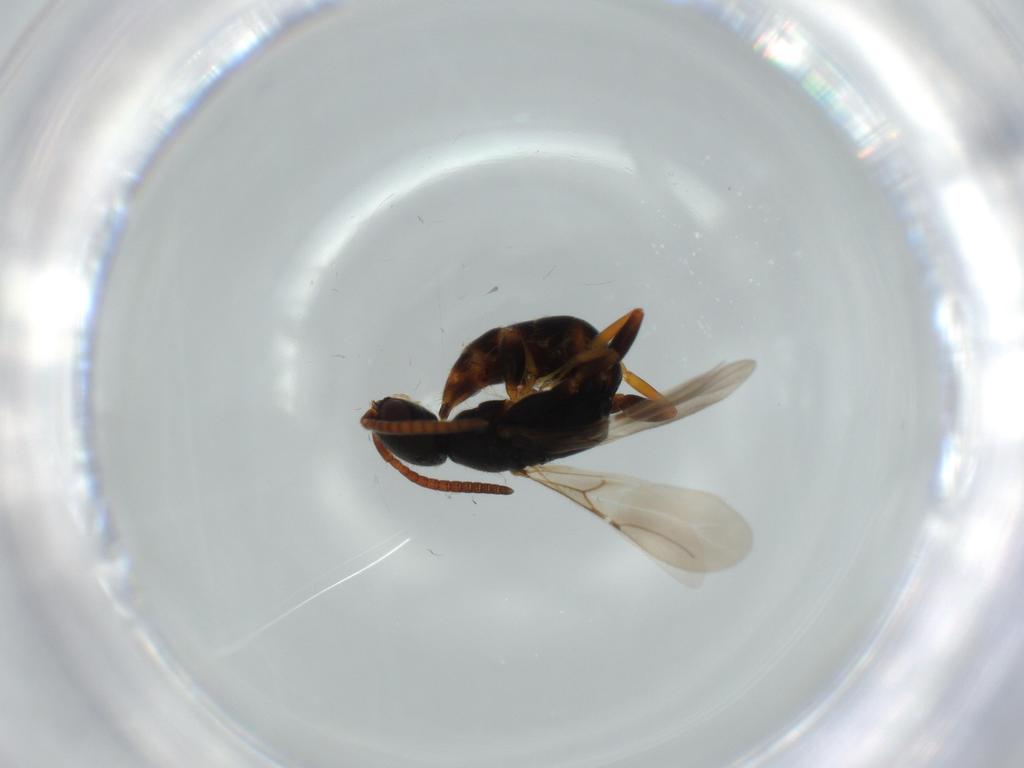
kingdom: Animalia
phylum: Arthropoda
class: Insecta
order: Hymenoptera
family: Bethylidae
